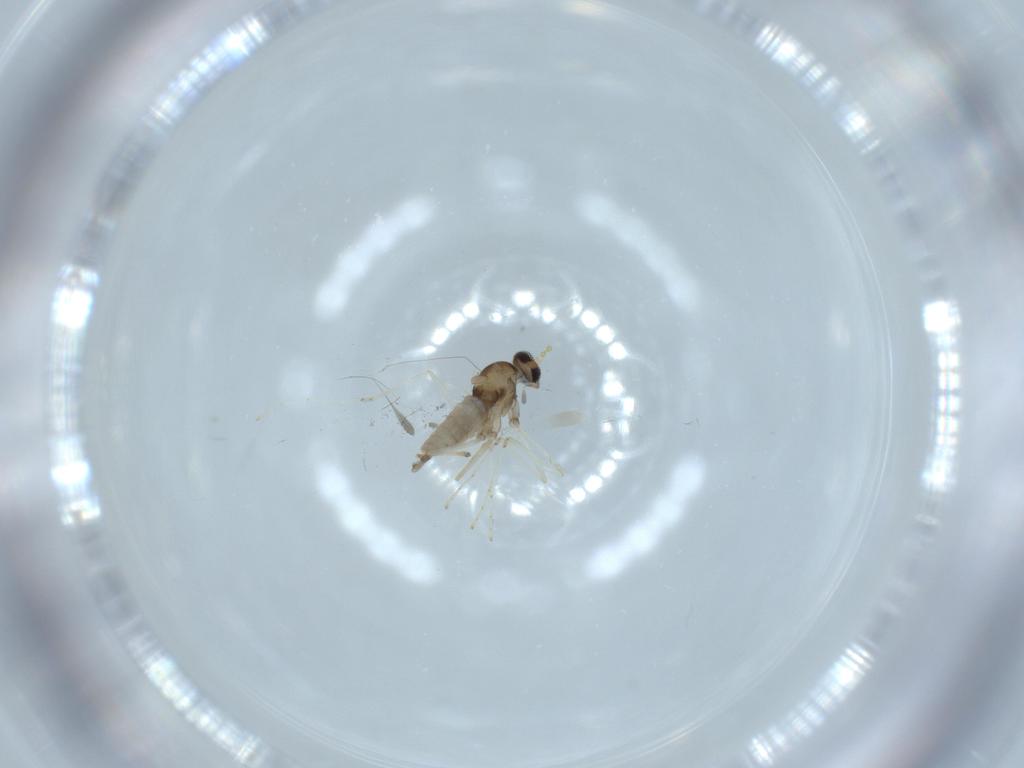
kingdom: Animalia
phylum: Arthropoda
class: Insecta
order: Diptera
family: Cecidomyiidae
